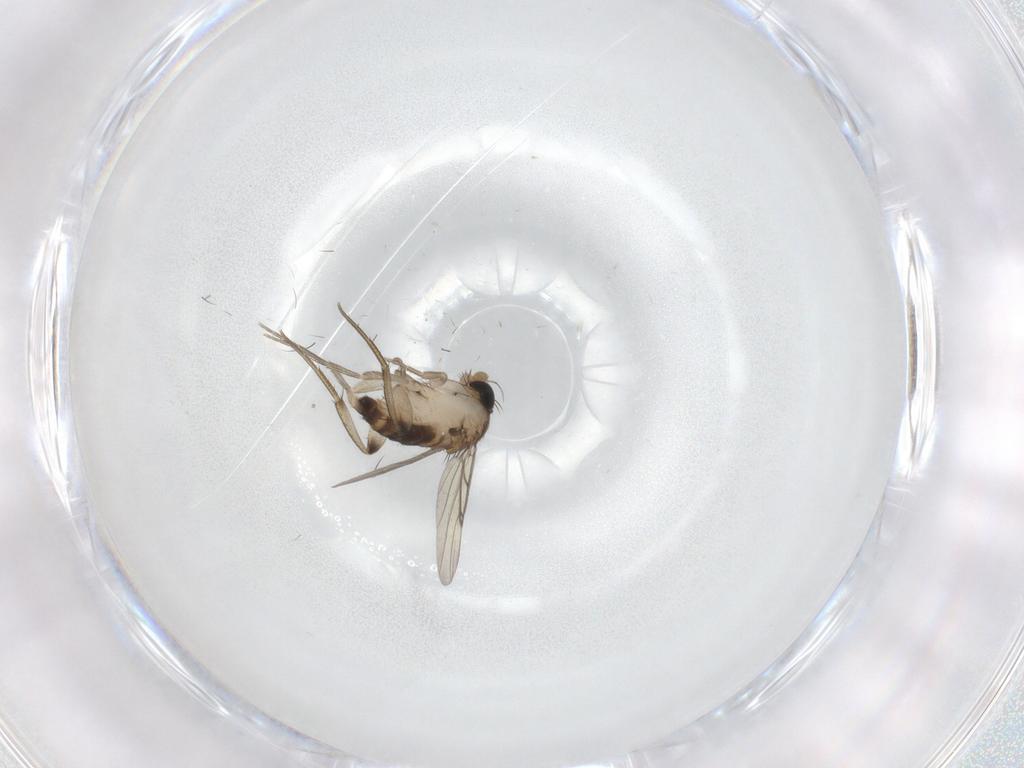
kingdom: Animalia
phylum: Arthropoda
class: Insecta
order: Diptera
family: Phoridae
